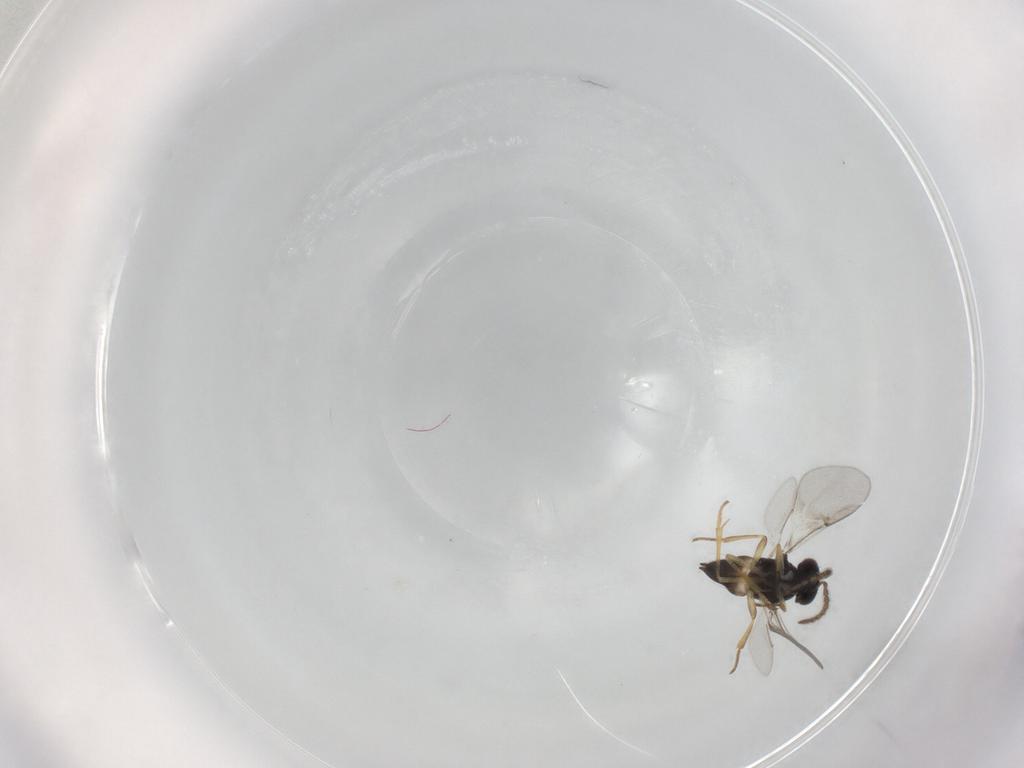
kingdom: Animalia
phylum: Arthropoda
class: Insecta
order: Diptera
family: Mycetophilidae
